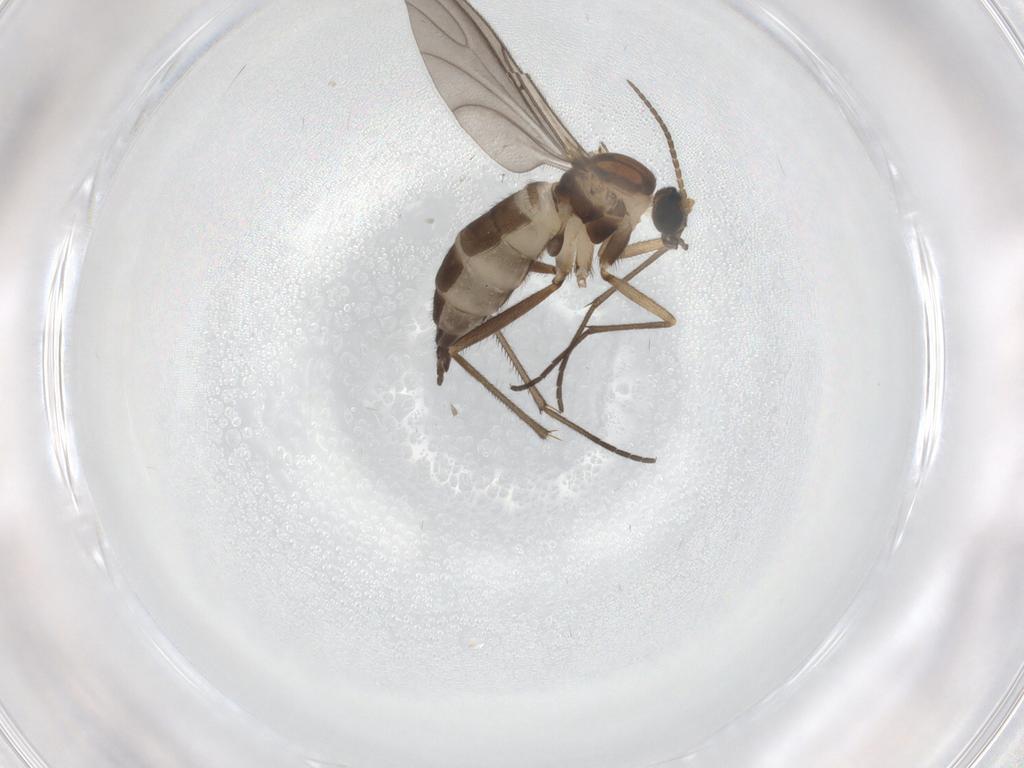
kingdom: Animalia
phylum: Arthropoda
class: Insecta
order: Diptera
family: Sciaridae
